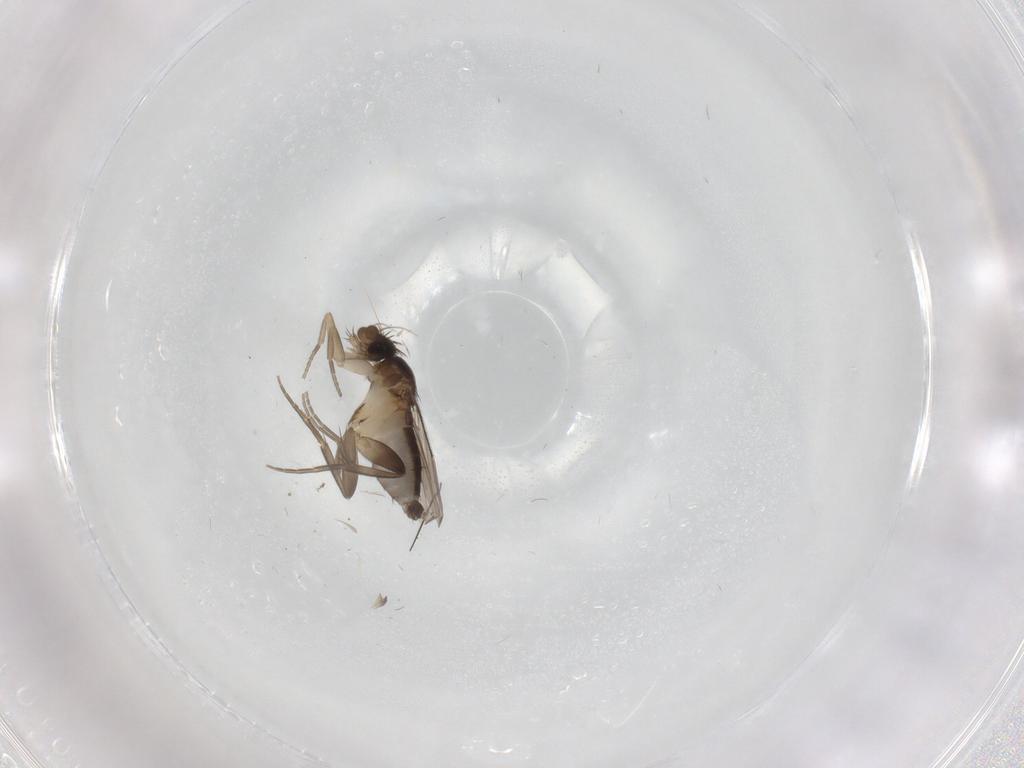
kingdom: Animalia
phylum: Arthropoda
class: Insecta
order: Diptera
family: Phoridae
